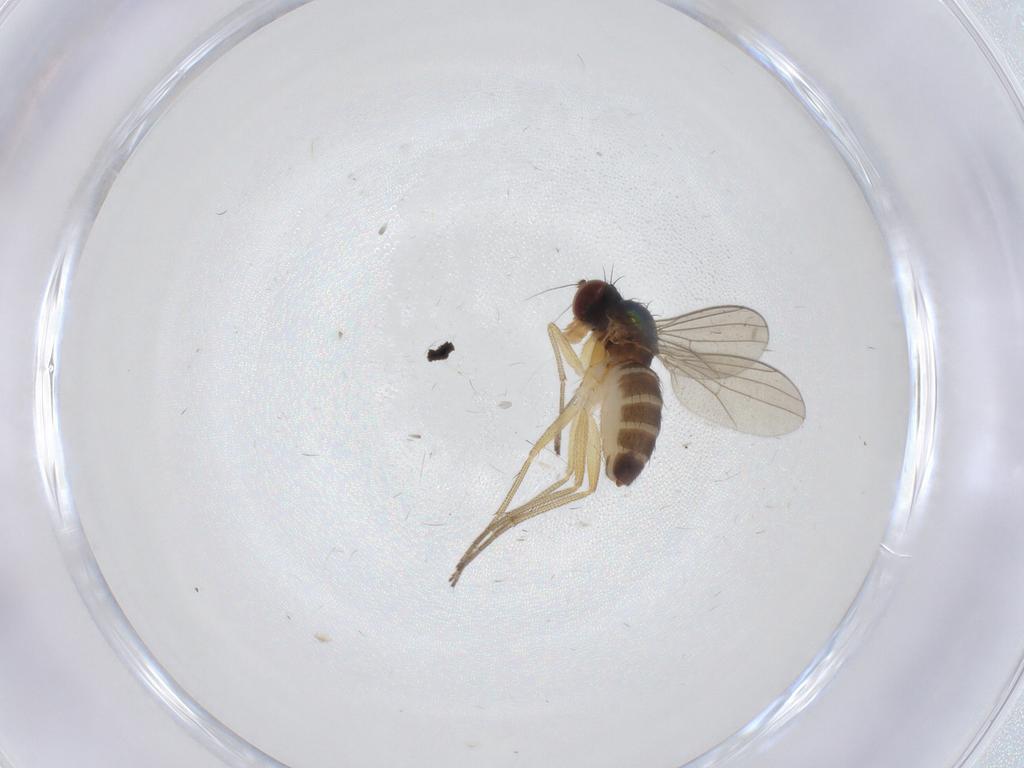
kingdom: Animalia
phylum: Arthropoda
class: Insecta
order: Diptera
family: Dolichopodidae
